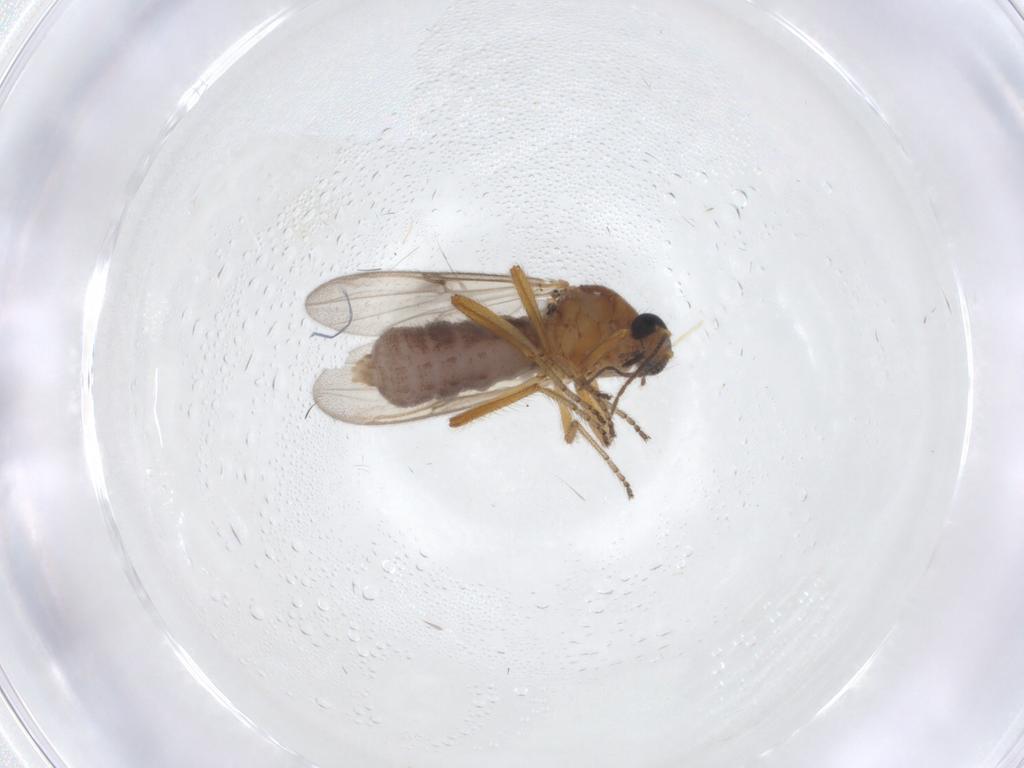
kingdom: Animalia
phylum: Arthropoda
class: Insecta
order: Diptera
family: Ceratopogonidae
